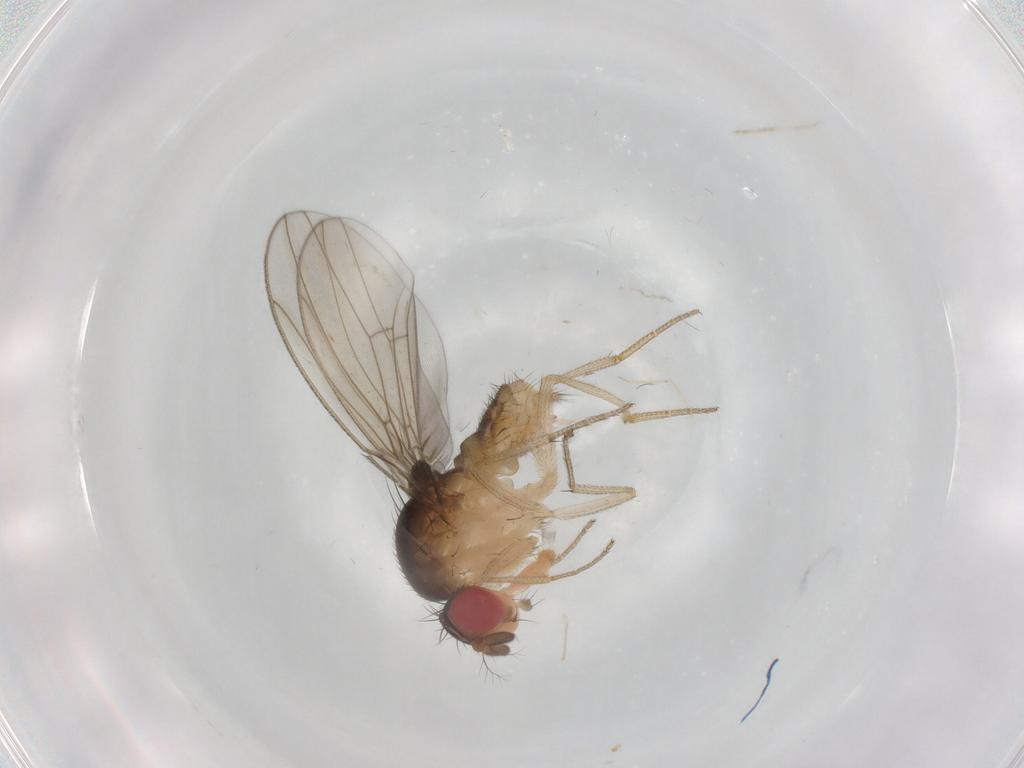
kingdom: Animalia
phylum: Arthropoda
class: Insecta
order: Diptera
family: Drosophilidae
